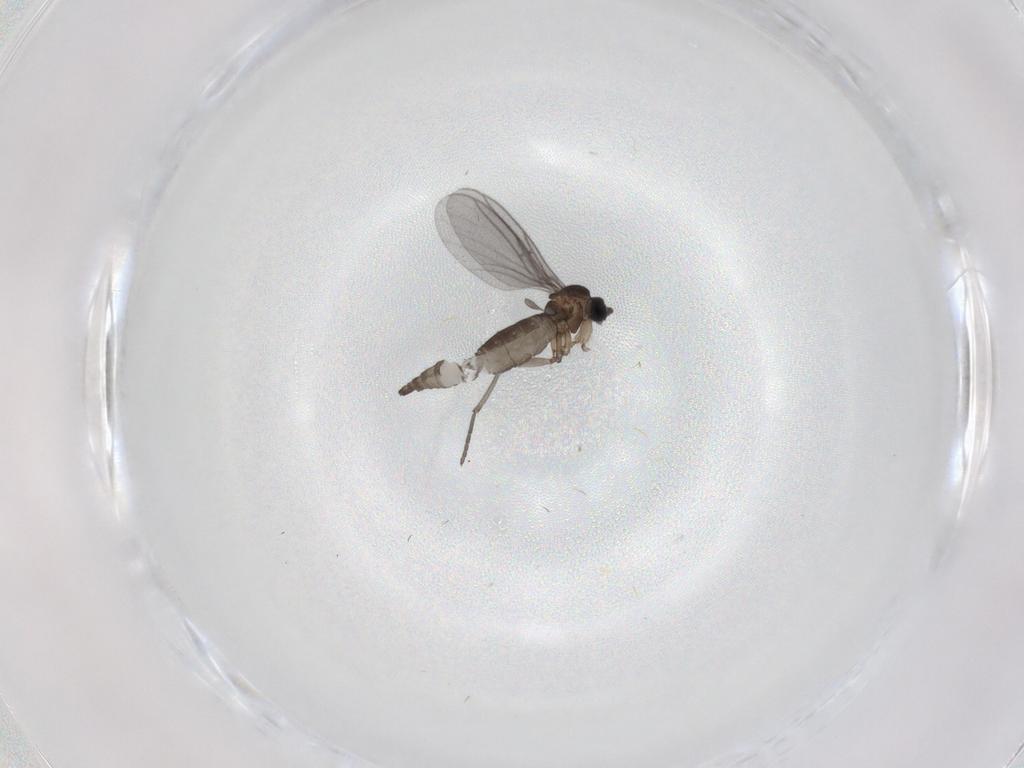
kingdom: Animalia
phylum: Arthropoda
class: Insecta
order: Diptera
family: Sciaridae
